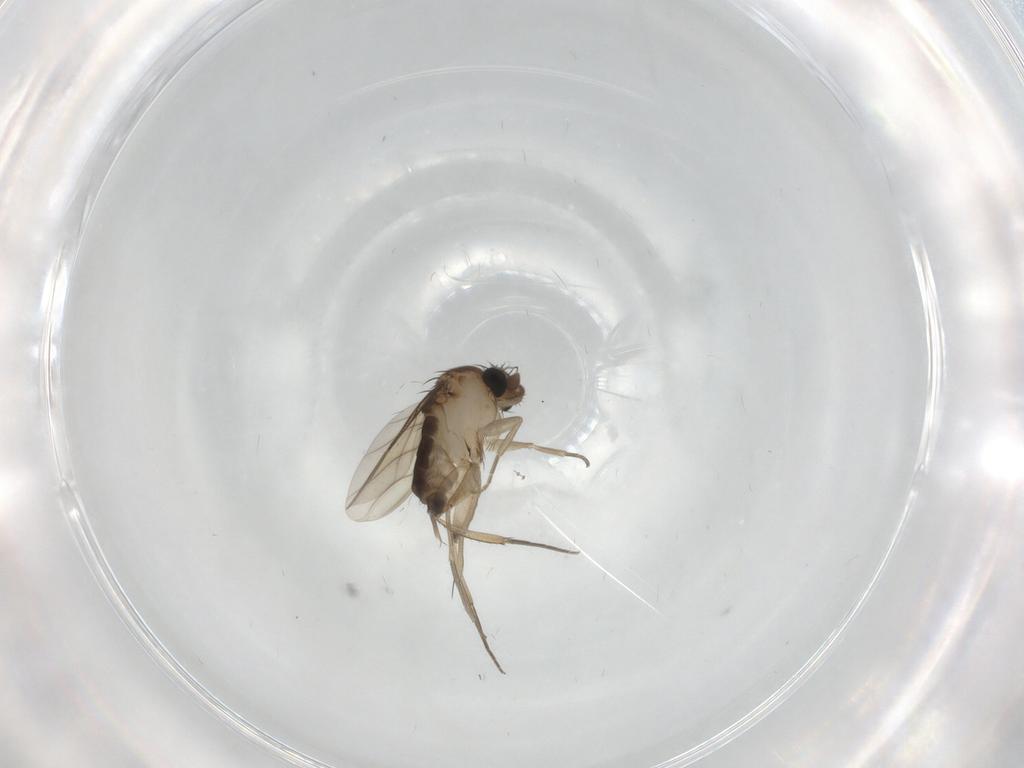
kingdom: Animalia
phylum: Arthropoda
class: Insecta
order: Diptera
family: Phoridae
